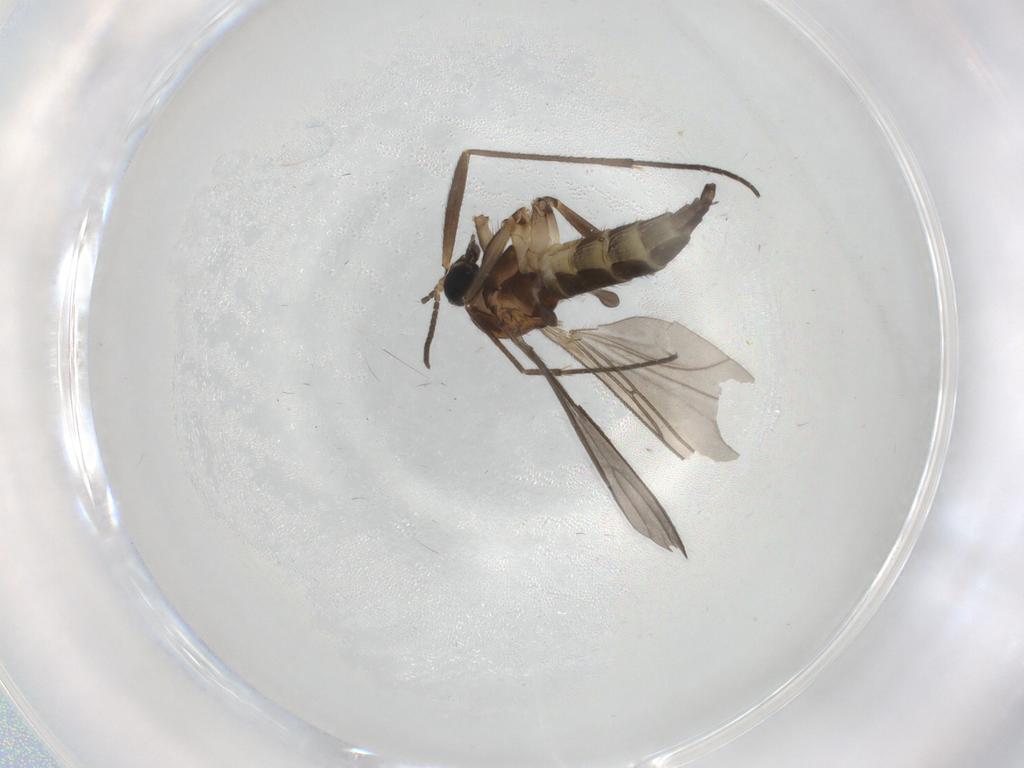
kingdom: Animalia
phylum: Arthropoda
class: Insecta
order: Diptera
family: Sciaridae
